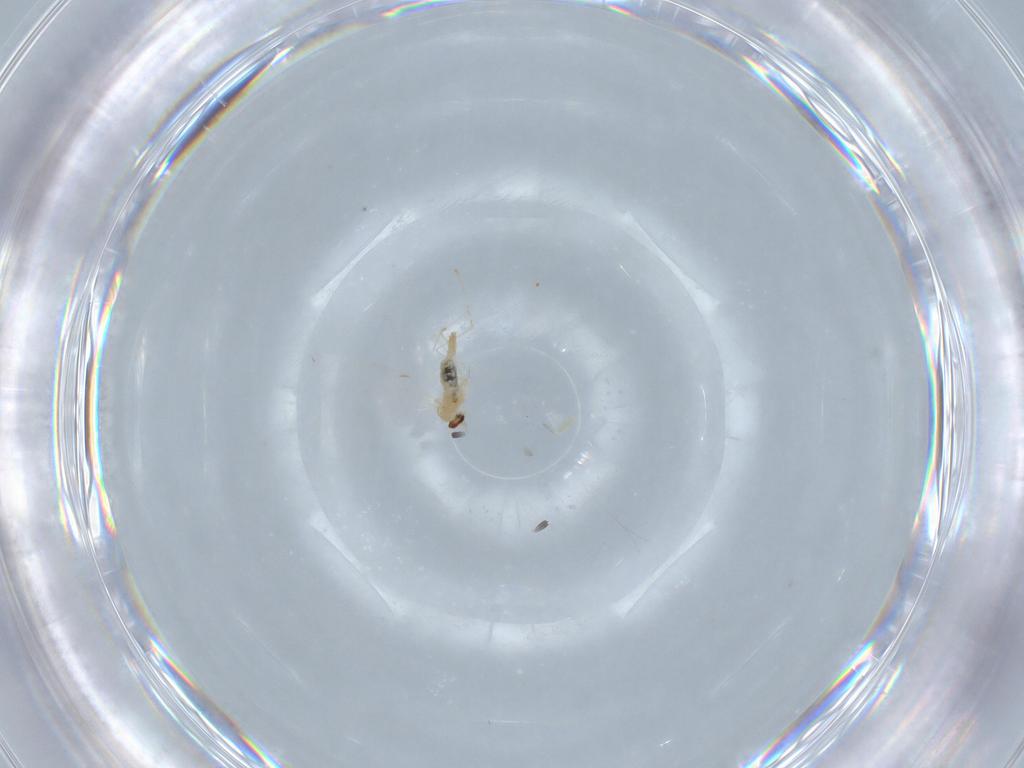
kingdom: Animalia
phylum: Arthropoda
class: Insecta
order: Diptera
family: Cecidomyiidae
